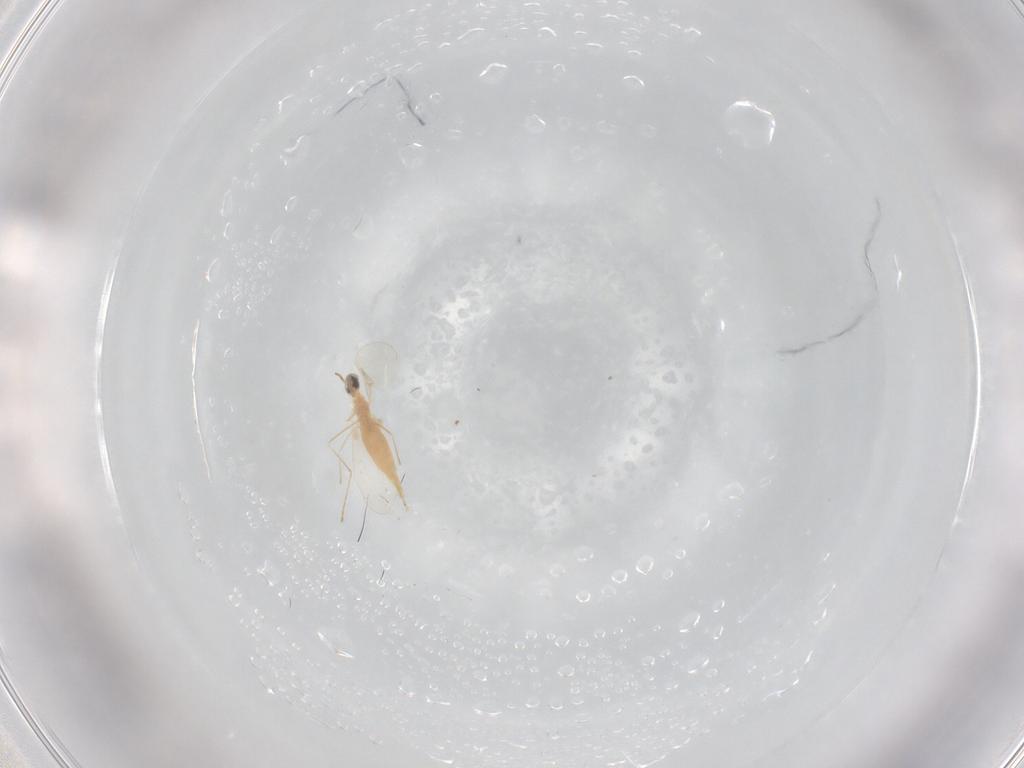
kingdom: Animalia
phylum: Arthropoda
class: Insecta
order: Diptera
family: Cecidomyiidae
